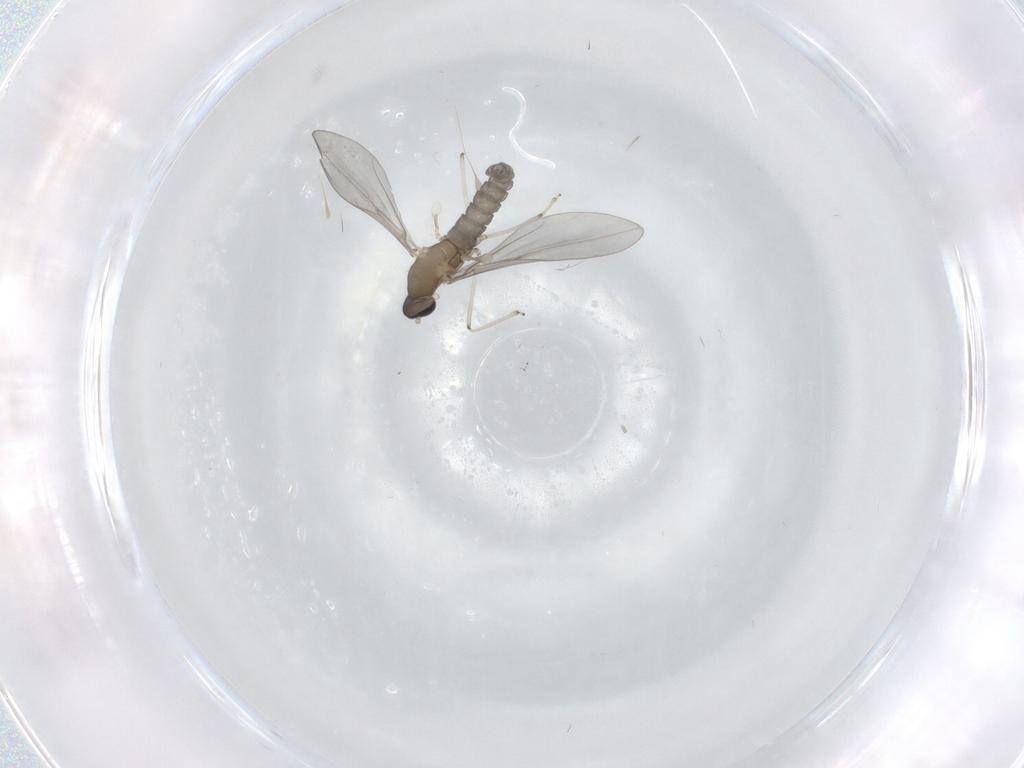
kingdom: Animalia
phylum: Arthropoda
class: Insecta
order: Diptera
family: Cecidomyiidae
